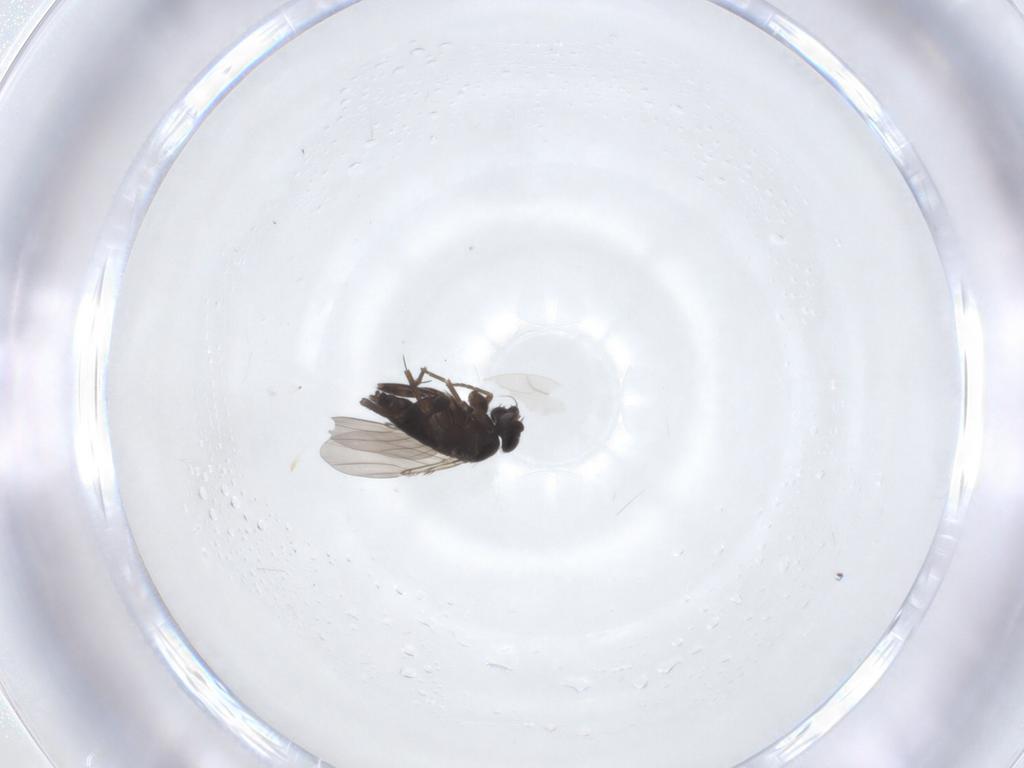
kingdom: Animalia
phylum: Arthropoda
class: Insecta
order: Diptera
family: Phoridae
